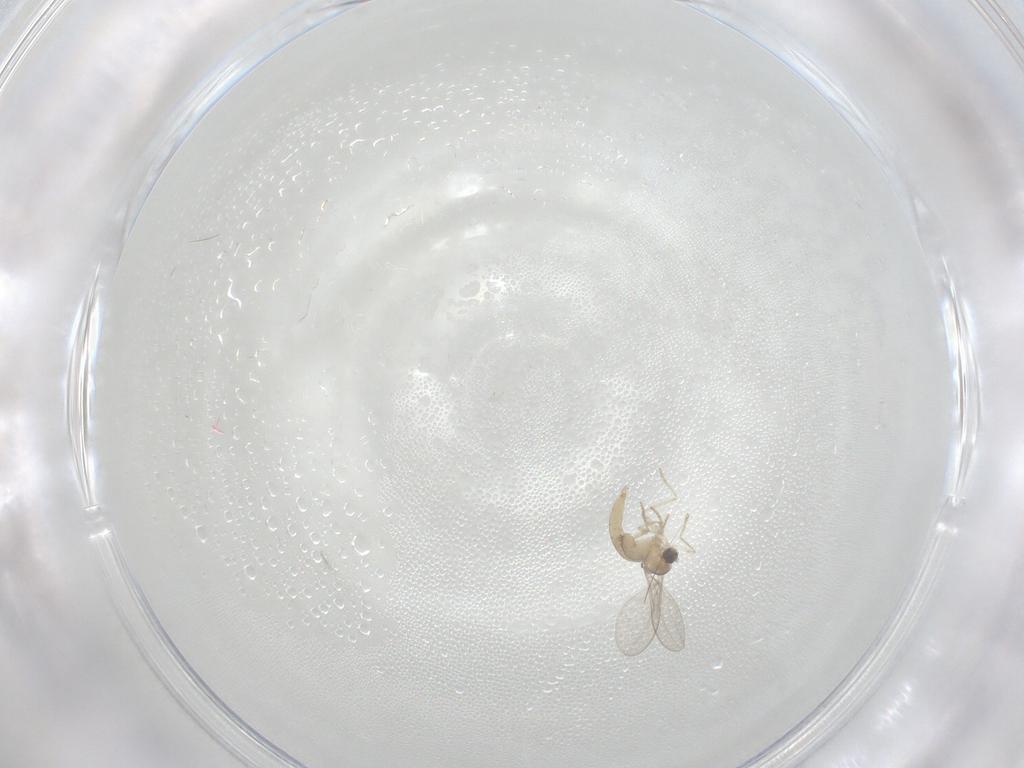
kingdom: Animalia
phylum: Arthropoda
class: Insecta
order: Diptera
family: Cecidomyiidae
